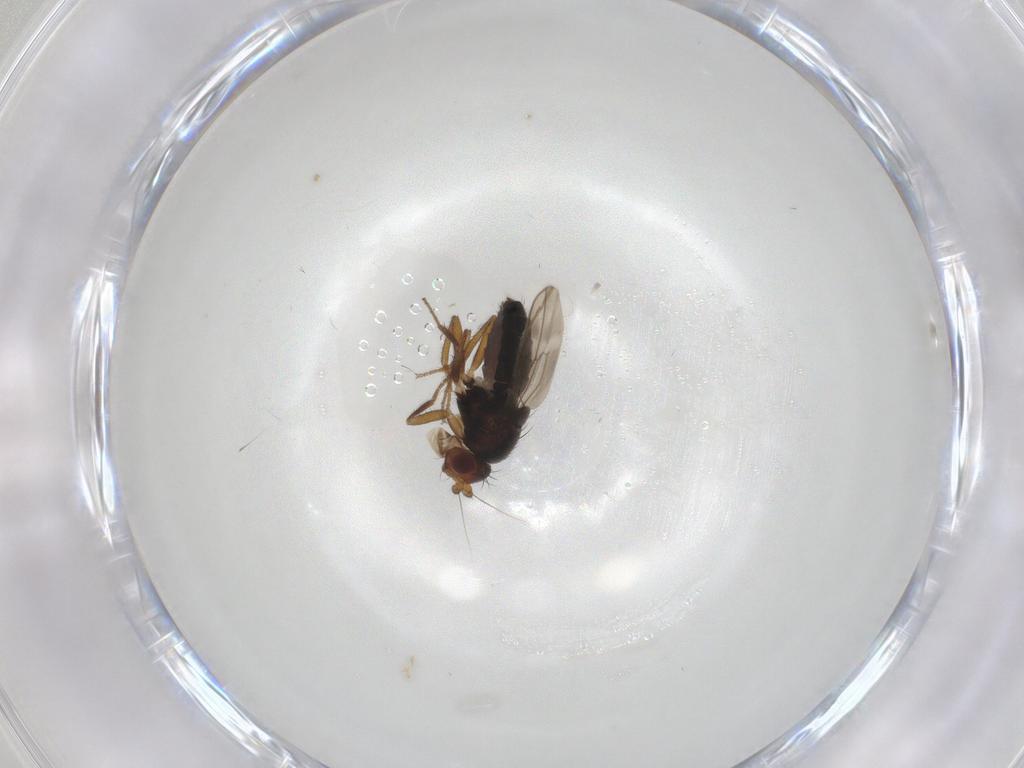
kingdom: Animalia
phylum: Arthropoda
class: Insecta
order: Diptera
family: Sphaeroceridae
